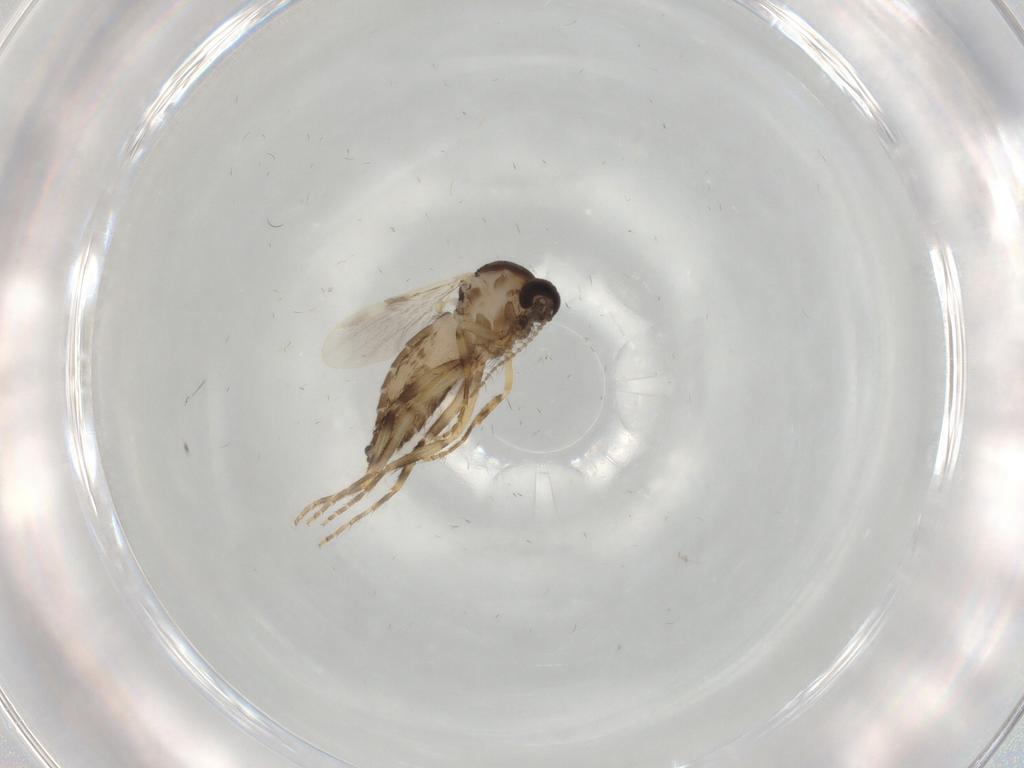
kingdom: Animalia
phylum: Arthropoda
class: Insecta
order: Diptera
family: Ceratopogonidae
